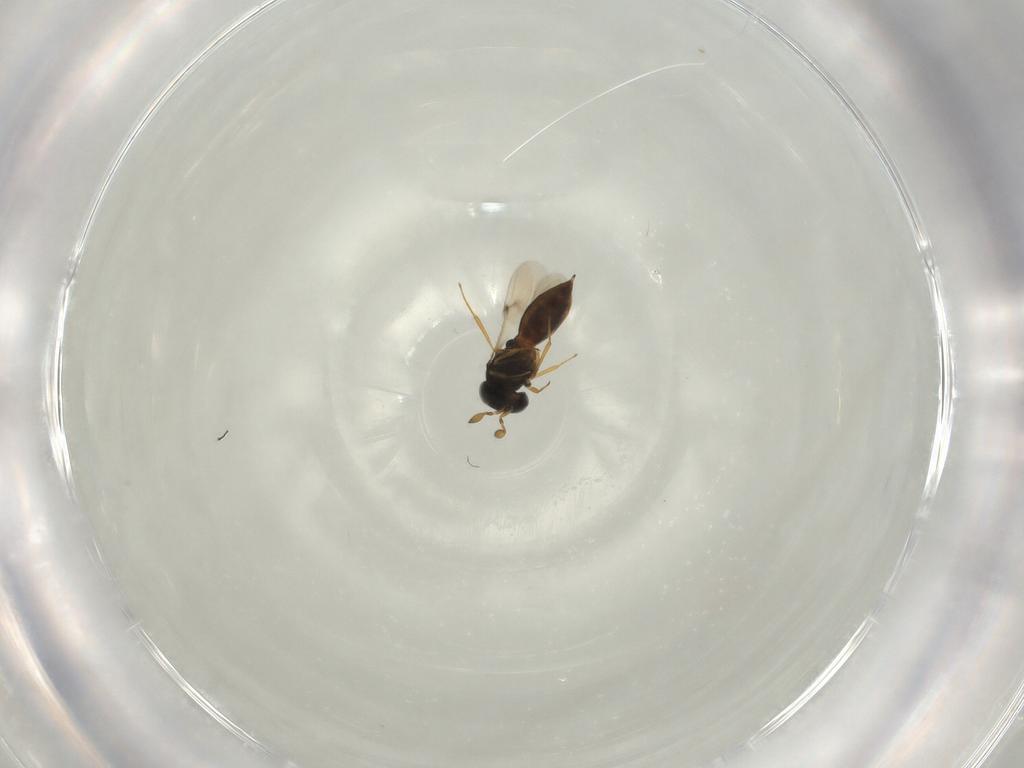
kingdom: Animalia
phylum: Arthropoda
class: Insecta
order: Hymenoptera
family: Scelionidae
